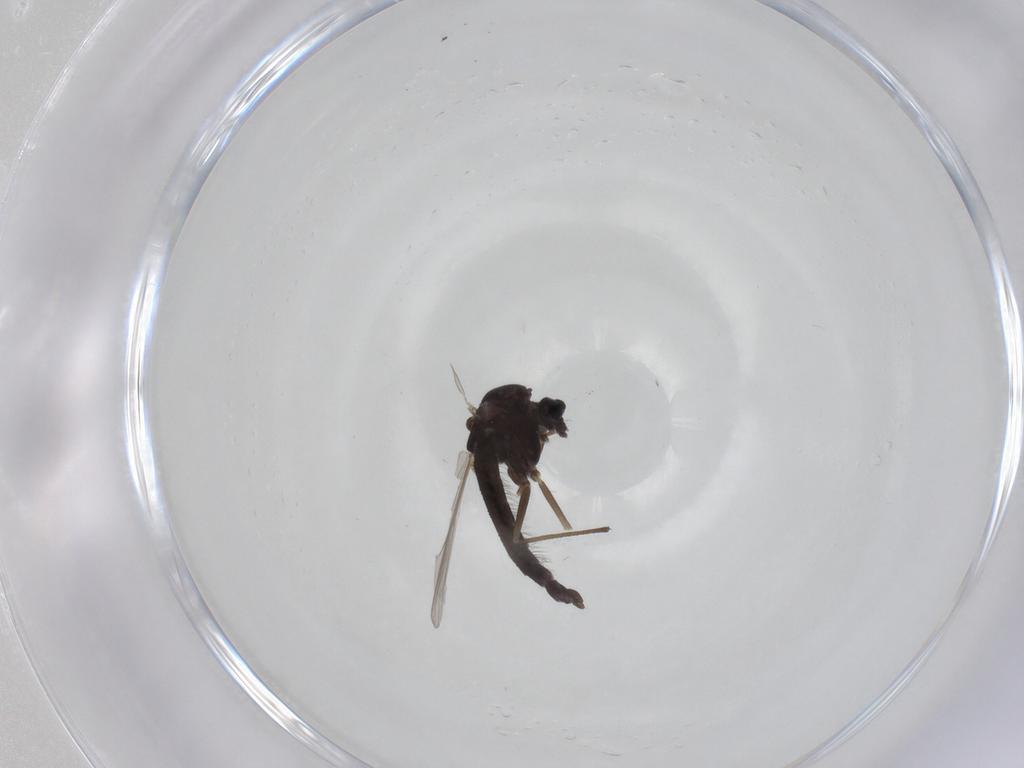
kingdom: Animalia
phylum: Arthropoda
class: Insecta
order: Diptera
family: Chironomidae
